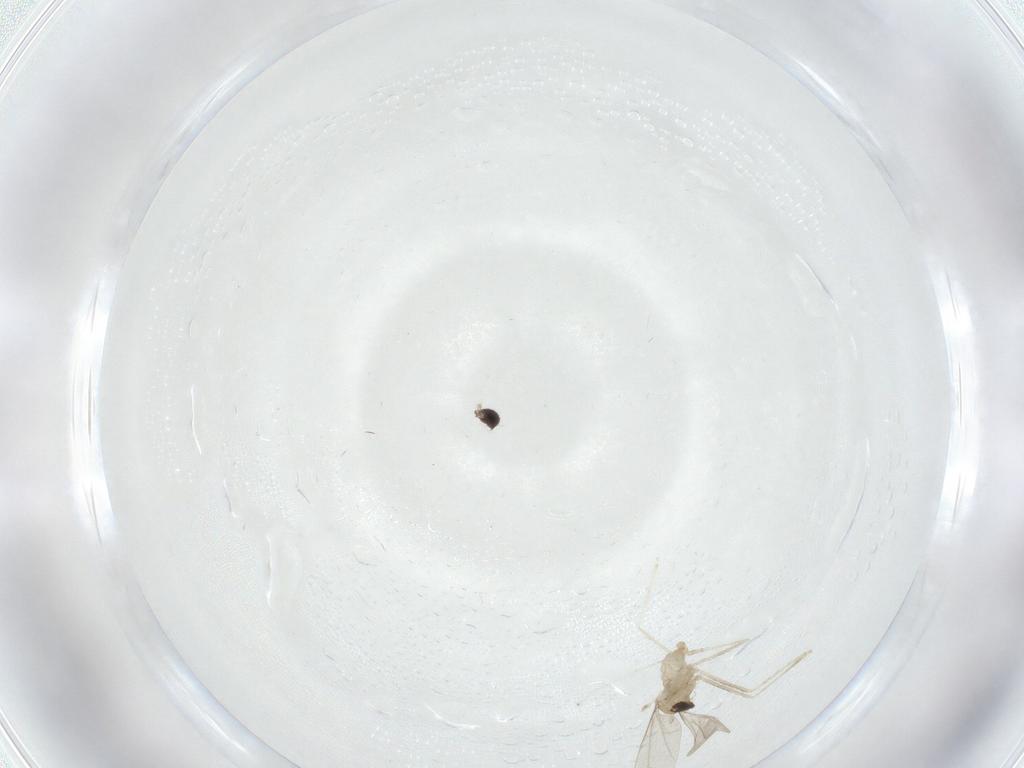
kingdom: Animalia
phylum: Arthropoda
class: Insecta
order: Diptera
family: Cecidomyiidae
